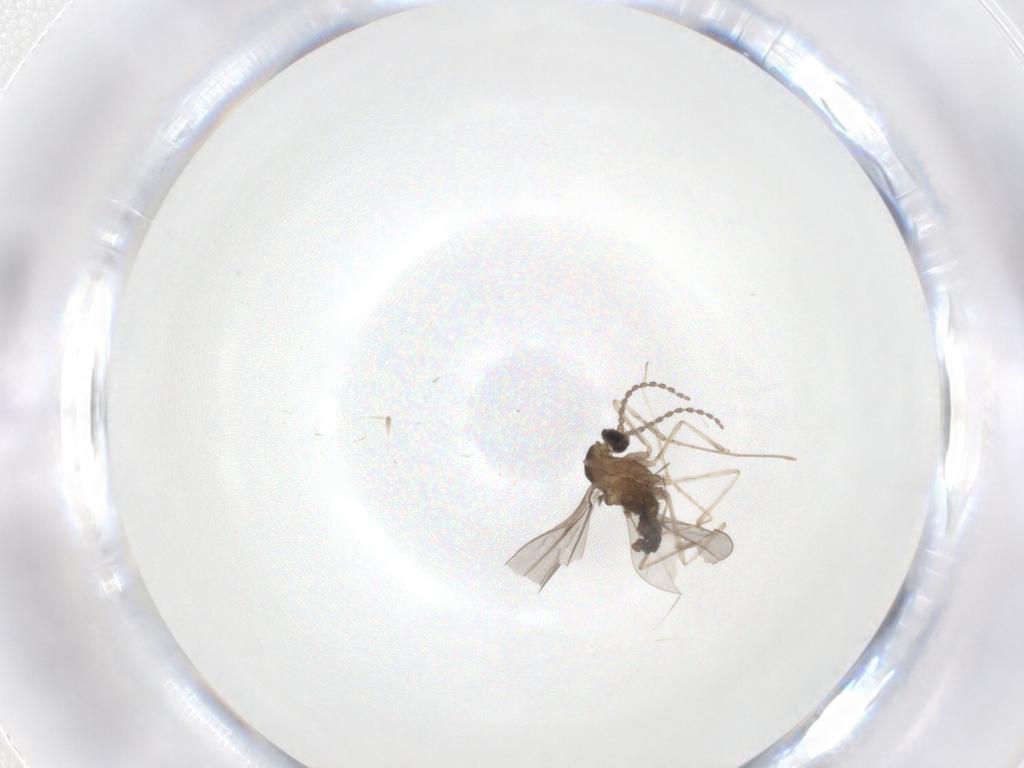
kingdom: Animalia
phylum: Arthropoda
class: Insecta
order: Diptera
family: Cecidomyiidae
